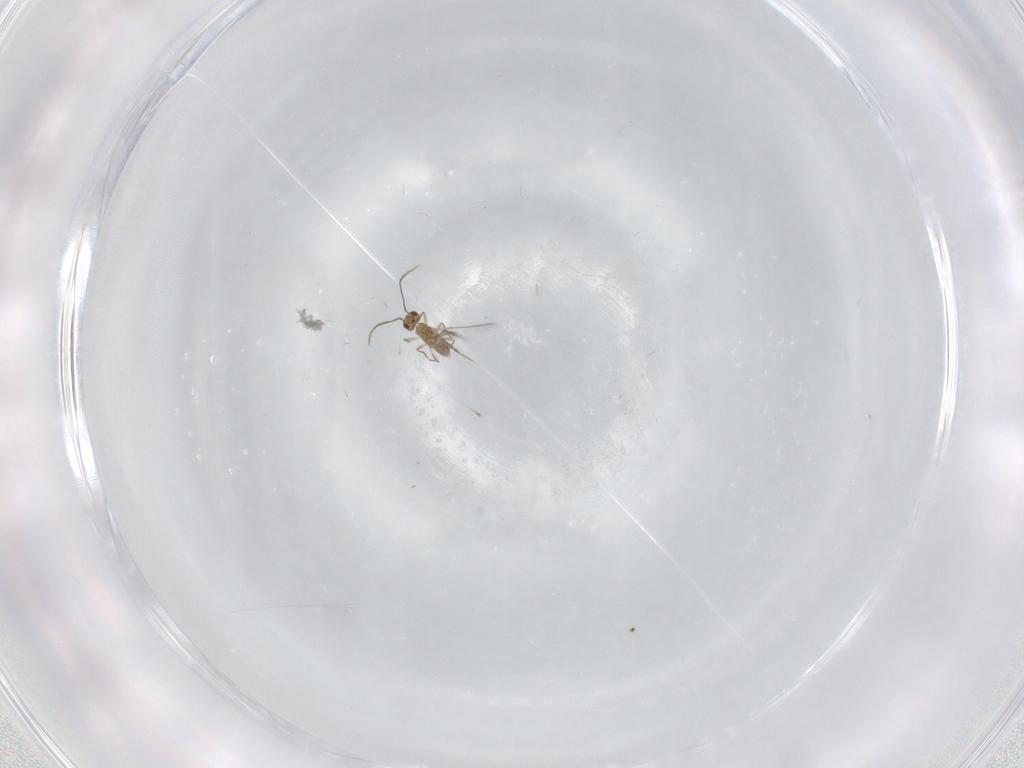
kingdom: Animalia
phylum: Arthropoda
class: Insecta
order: Hymenoptera
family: Mymaridae
